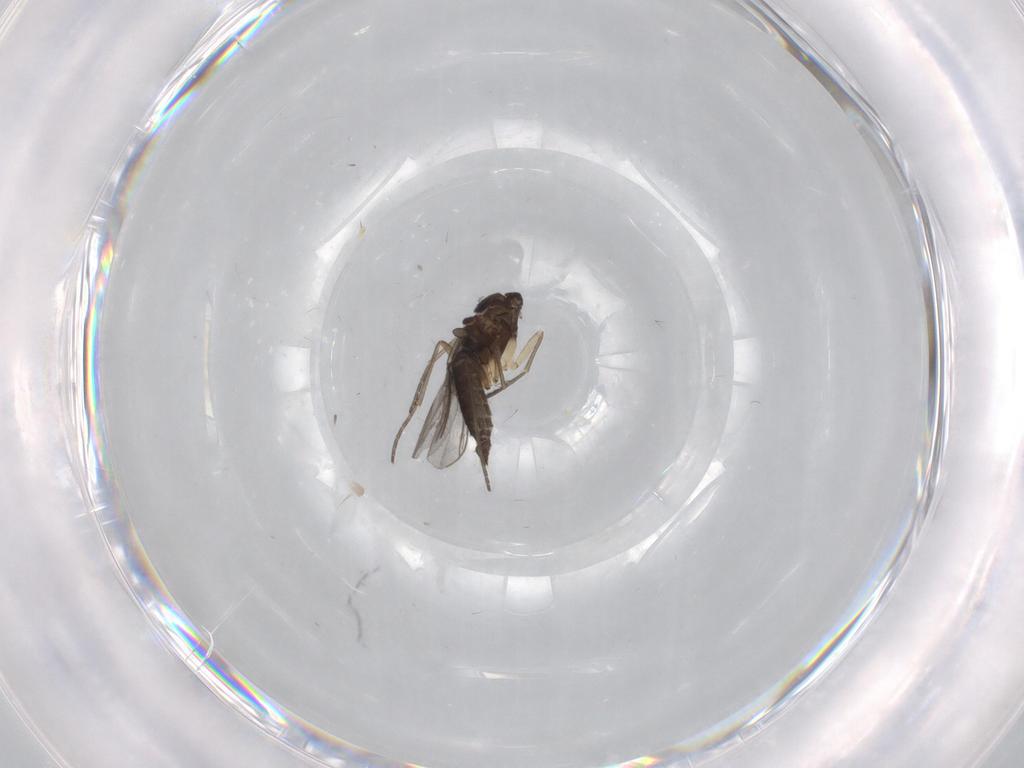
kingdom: Animalia
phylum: Arthropoda
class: Insecta
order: Diptera
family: Sciaridae
